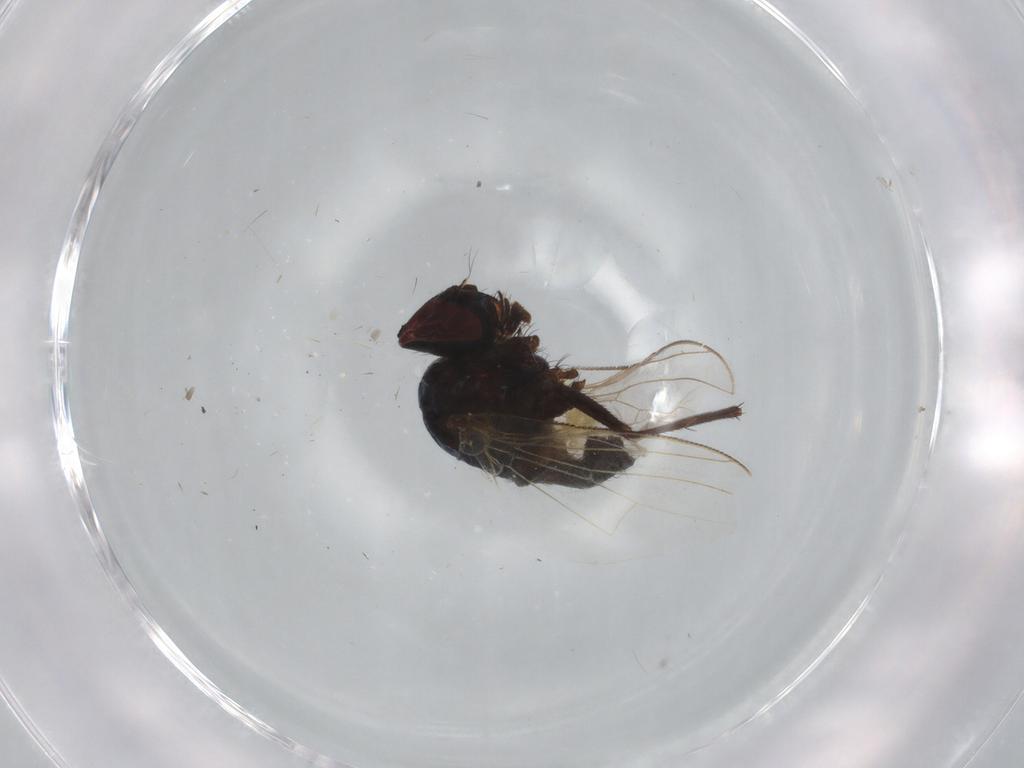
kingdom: Animalia
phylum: Arthropoda
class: Insecta
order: Diptera
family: Muscidae
